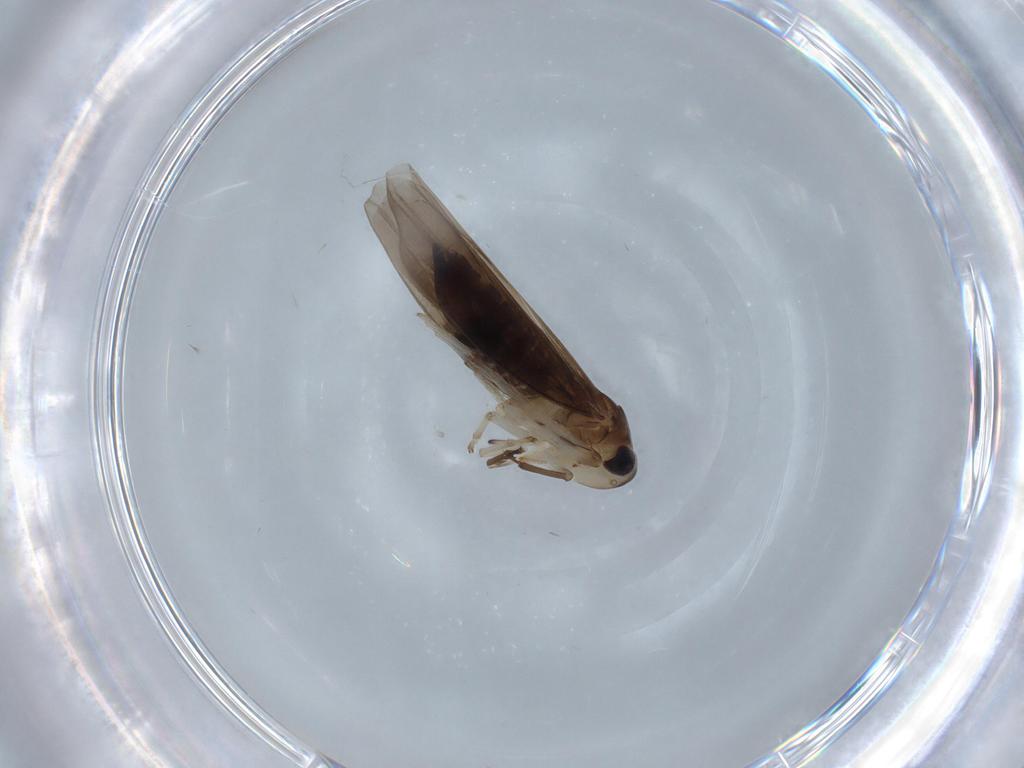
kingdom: Animalia
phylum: Arthropoda
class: Insecta
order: Hemiptera
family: Cicadellidae
